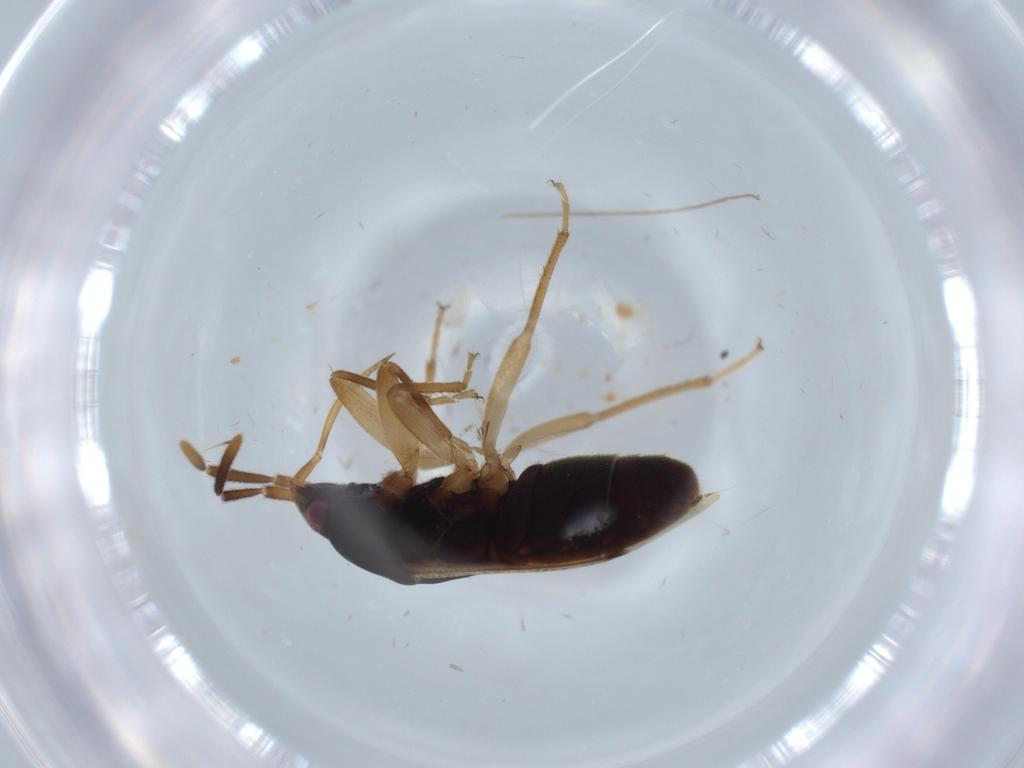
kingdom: Animalia
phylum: Arthropoda
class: Insecta
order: Hemiptera
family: Rhyparochromidae
